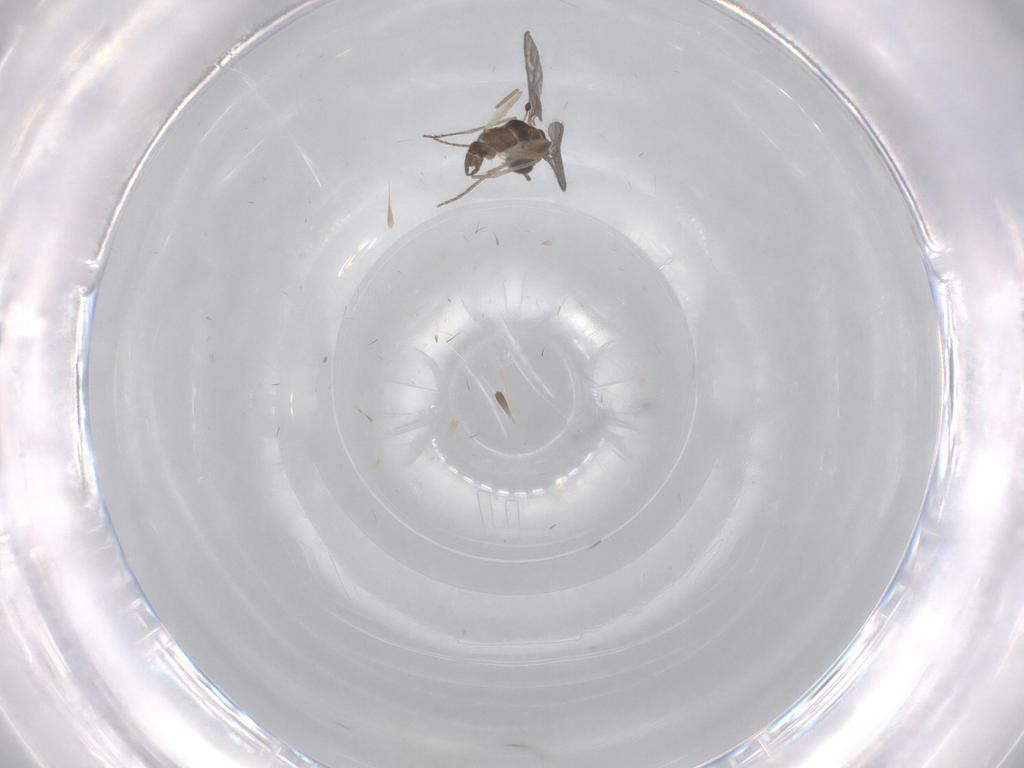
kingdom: Animalia
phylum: Arthropoda
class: Insecta
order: Diptera
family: Sciaridae
